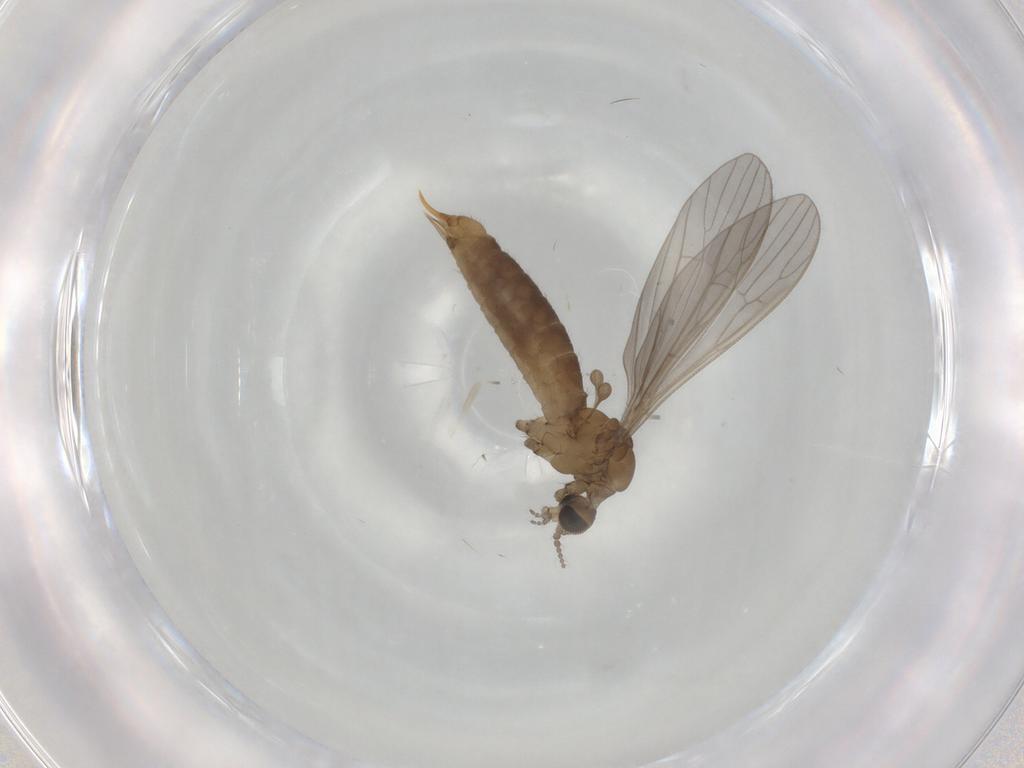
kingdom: Animalia
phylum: Arthropoda
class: Insecta
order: Diptera
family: Limoniidae
